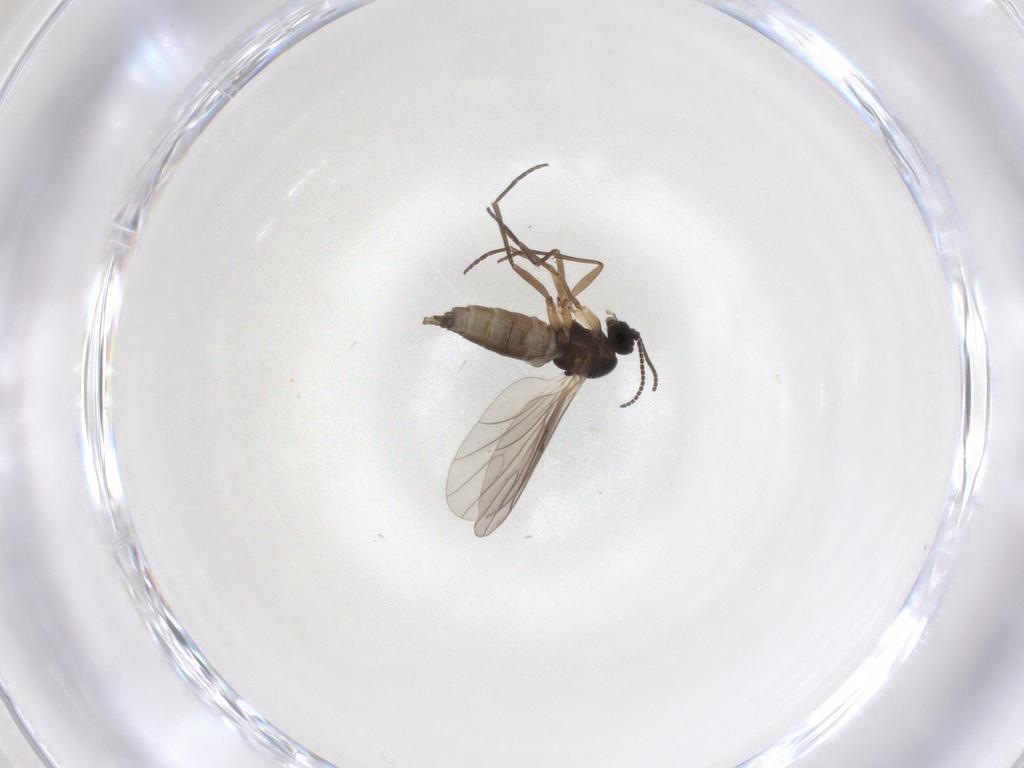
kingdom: Animalia
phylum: Arthropoda
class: Insecta
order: Diptera
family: Sciaridae
